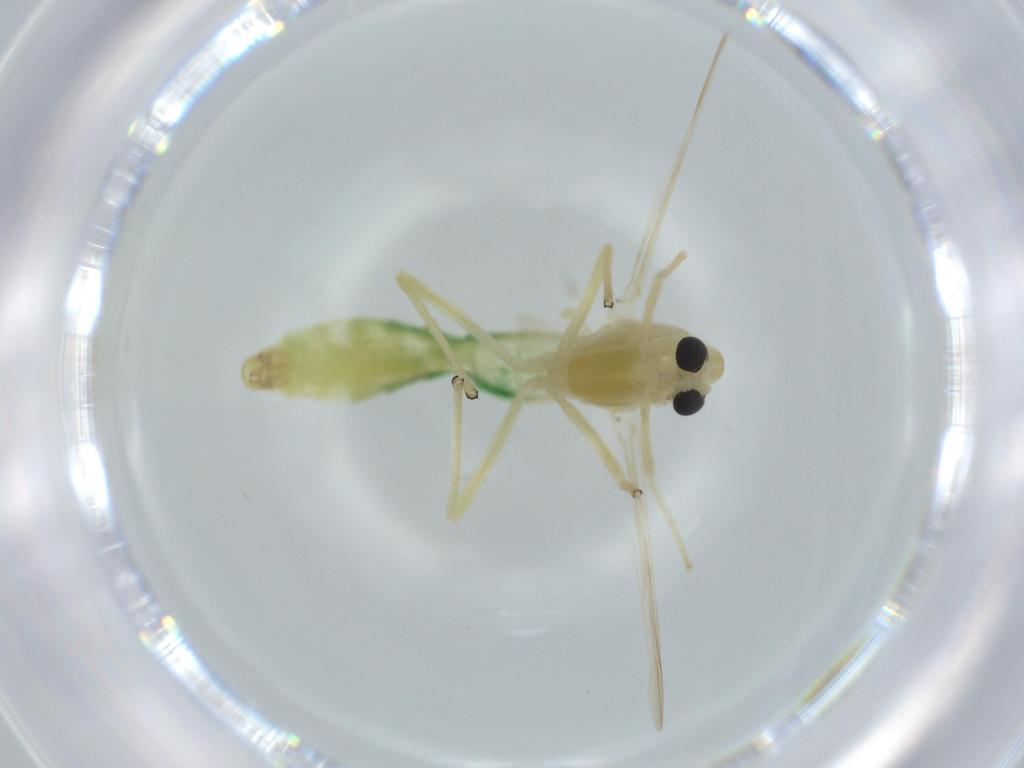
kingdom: Animalia
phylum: Arthropoda
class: Insecta
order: Diptera
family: Chironomidae
